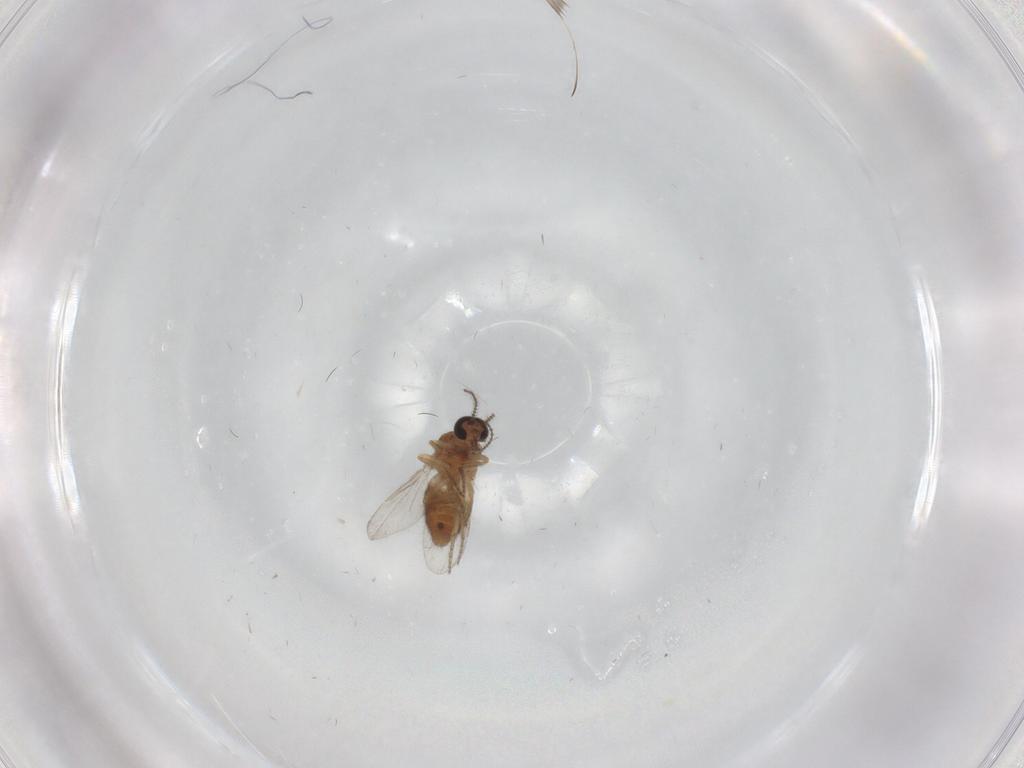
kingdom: Animalia
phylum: Arthropoda
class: Insecta
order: Diptera
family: Ceratopogonidae
